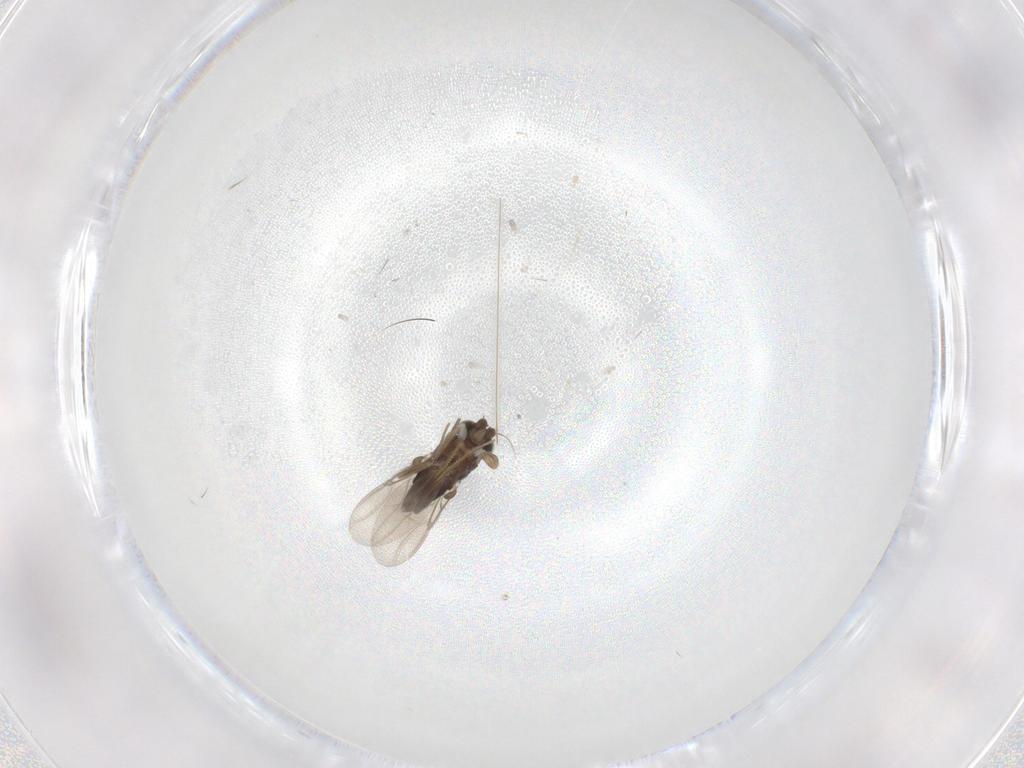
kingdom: Animalia
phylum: Arthropoda
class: Insecta
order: Diptera
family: Phoridae
